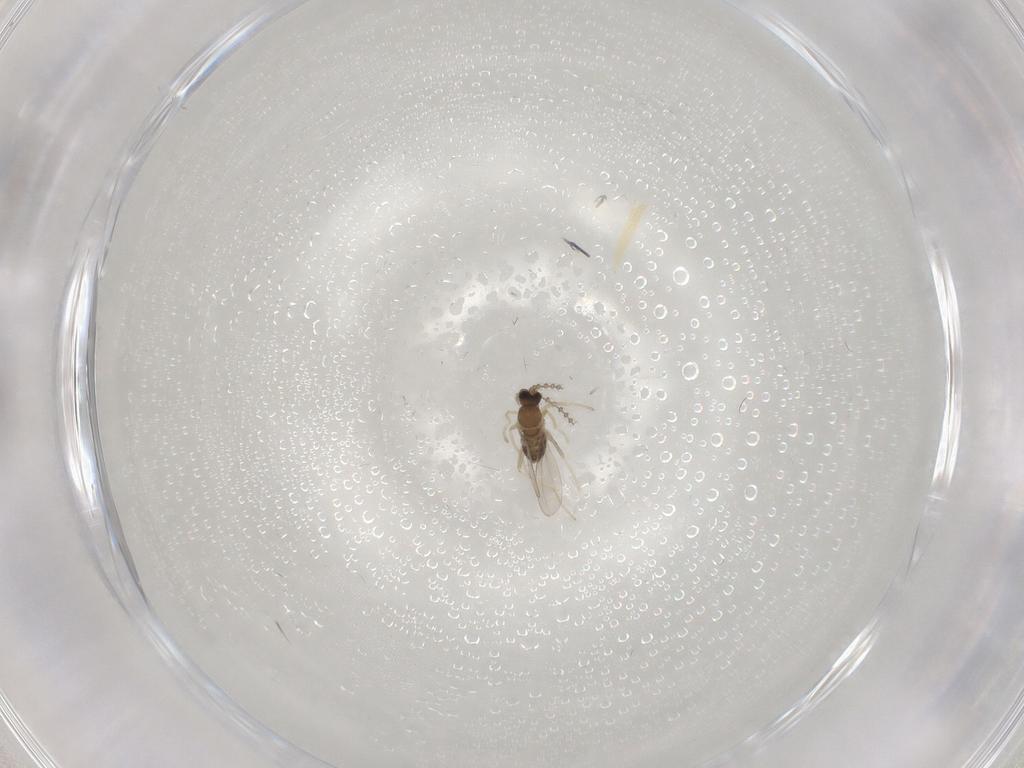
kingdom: Animalia
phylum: Arthropoda
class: Insecta
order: Diptera
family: Cecidomyiidae
